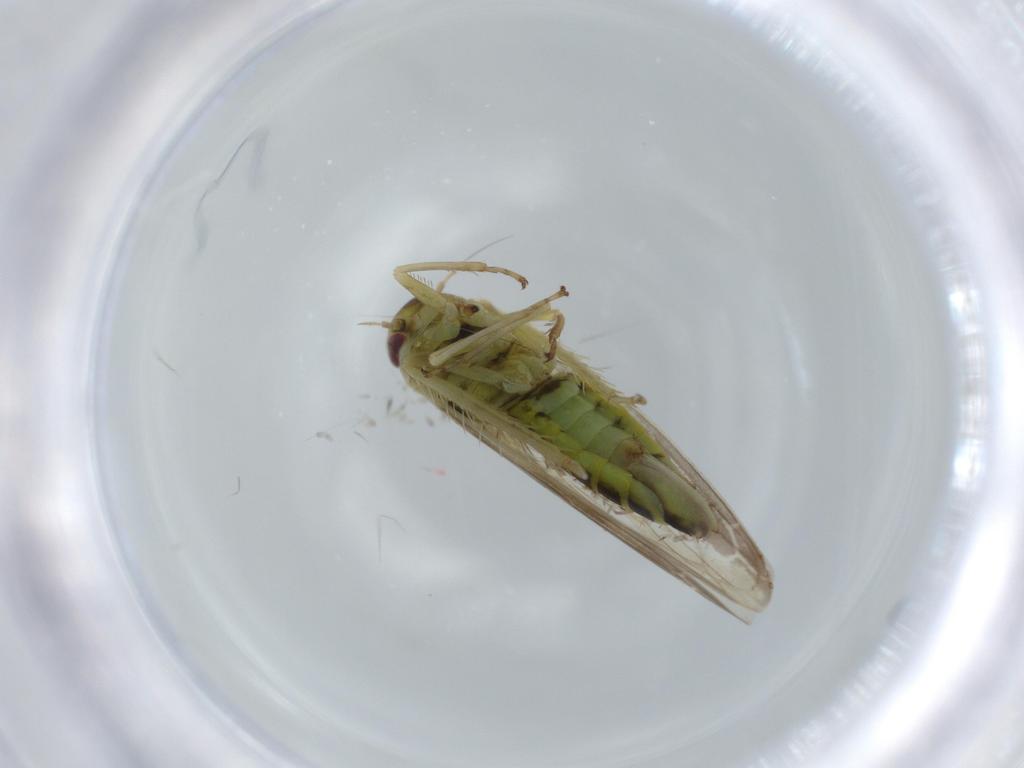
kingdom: Animalia
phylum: Arthropoda
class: Insecta
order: Hemiptera
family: Cicadellidae
